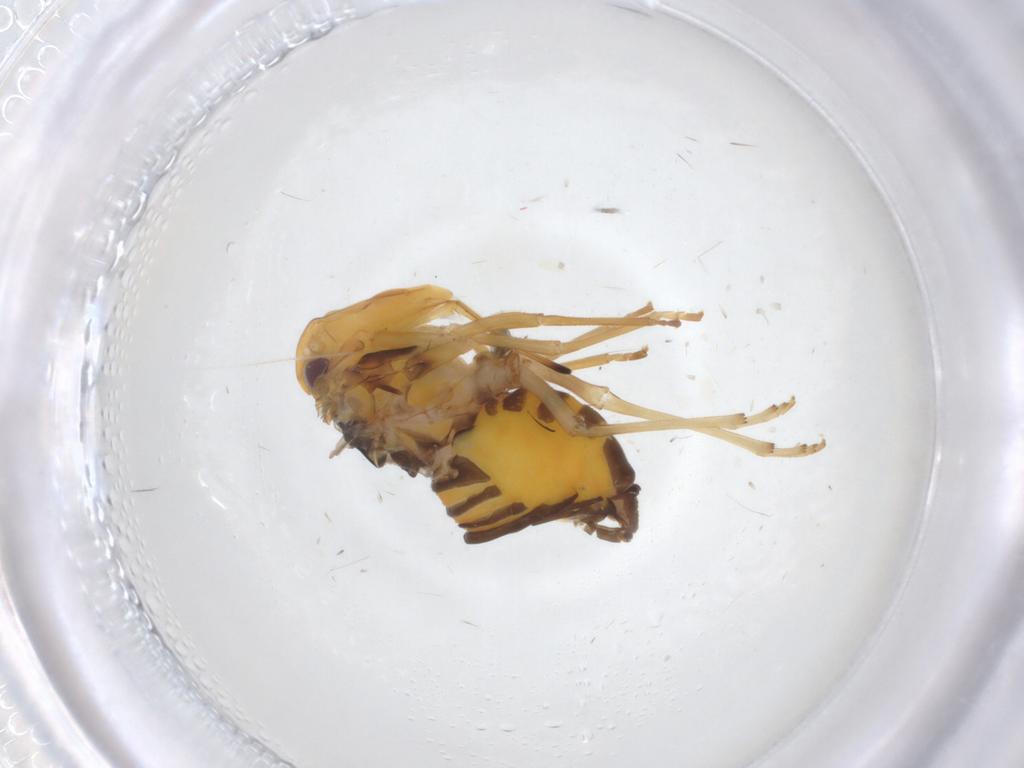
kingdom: Animalia
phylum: Arthropoda
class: Insecta
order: Hemiptera
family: Kinnaridae
